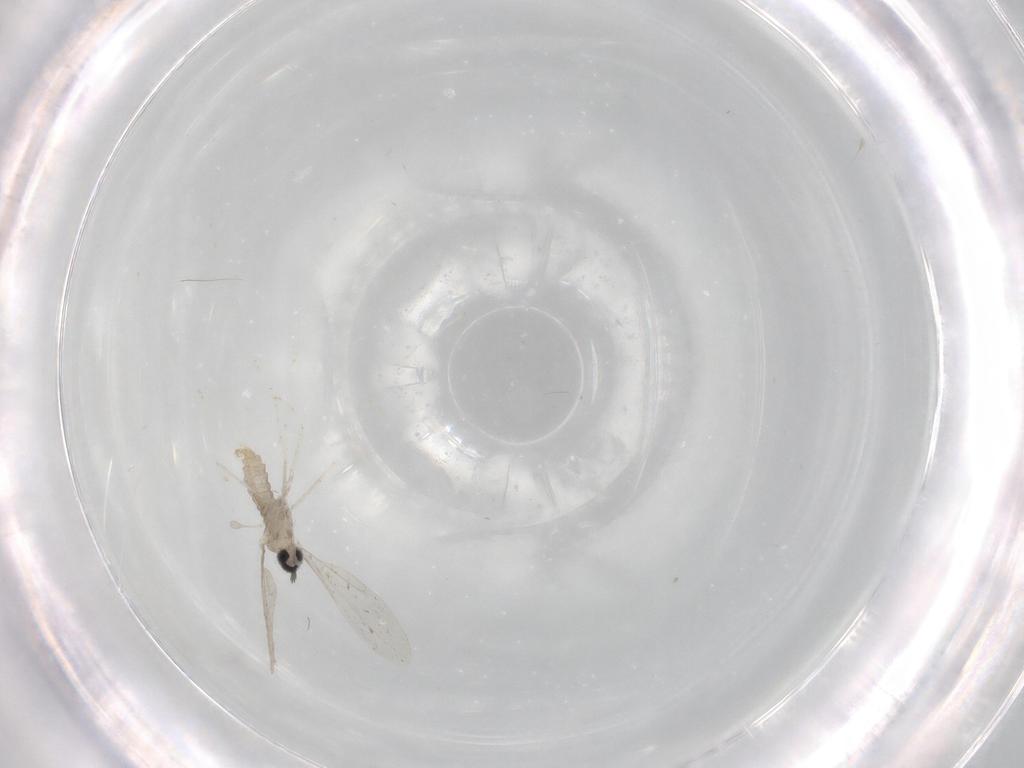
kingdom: Animalia
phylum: Arthropoda
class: Insecta
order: Diptera
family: Cecidomyiidae
